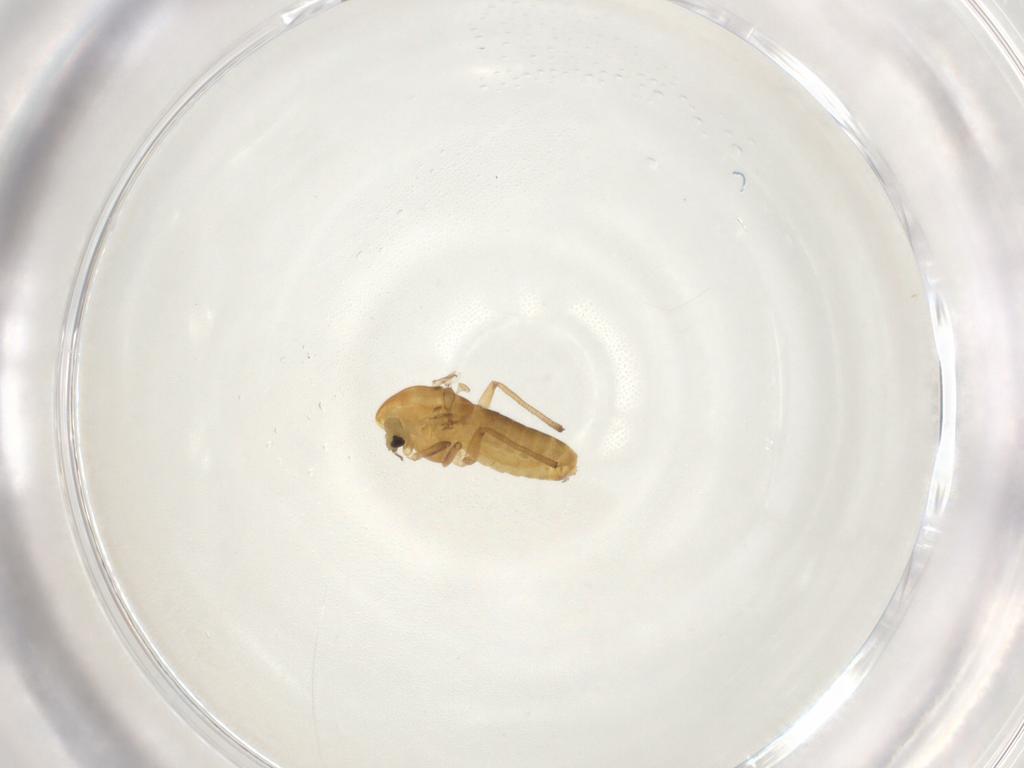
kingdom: Animalia
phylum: Arthropoda
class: Insecta
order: Diptera
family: Chironomidae
